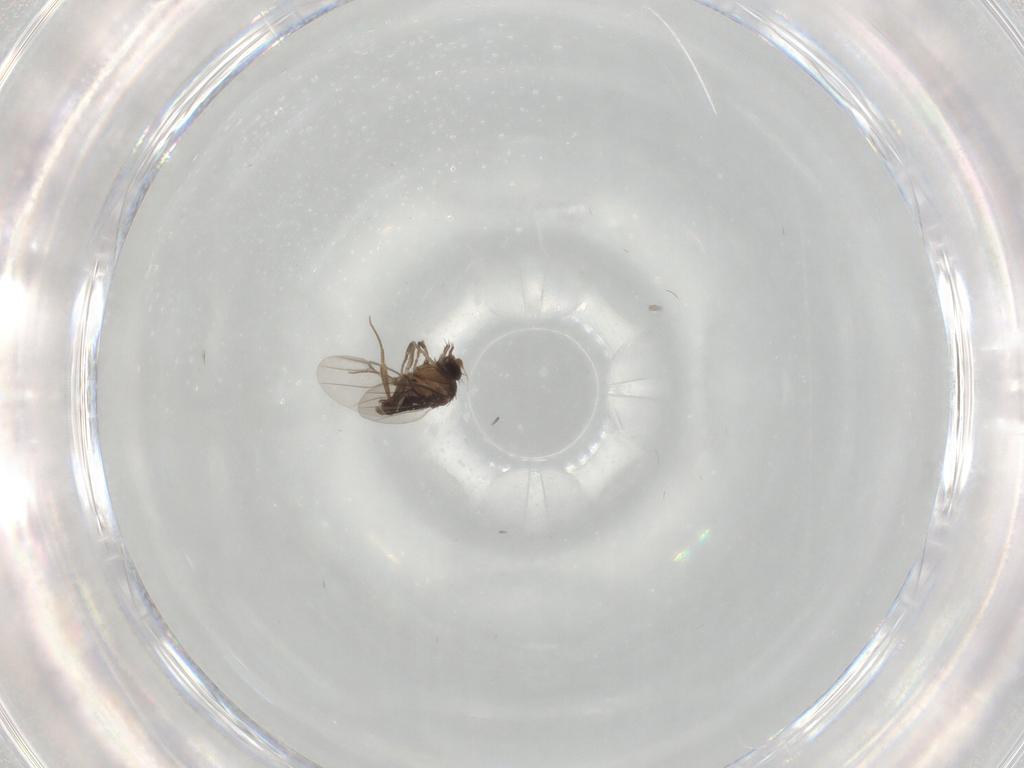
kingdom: Animalia
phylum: Arthropoda
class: Insecta
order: Diptera
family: Phoridae
